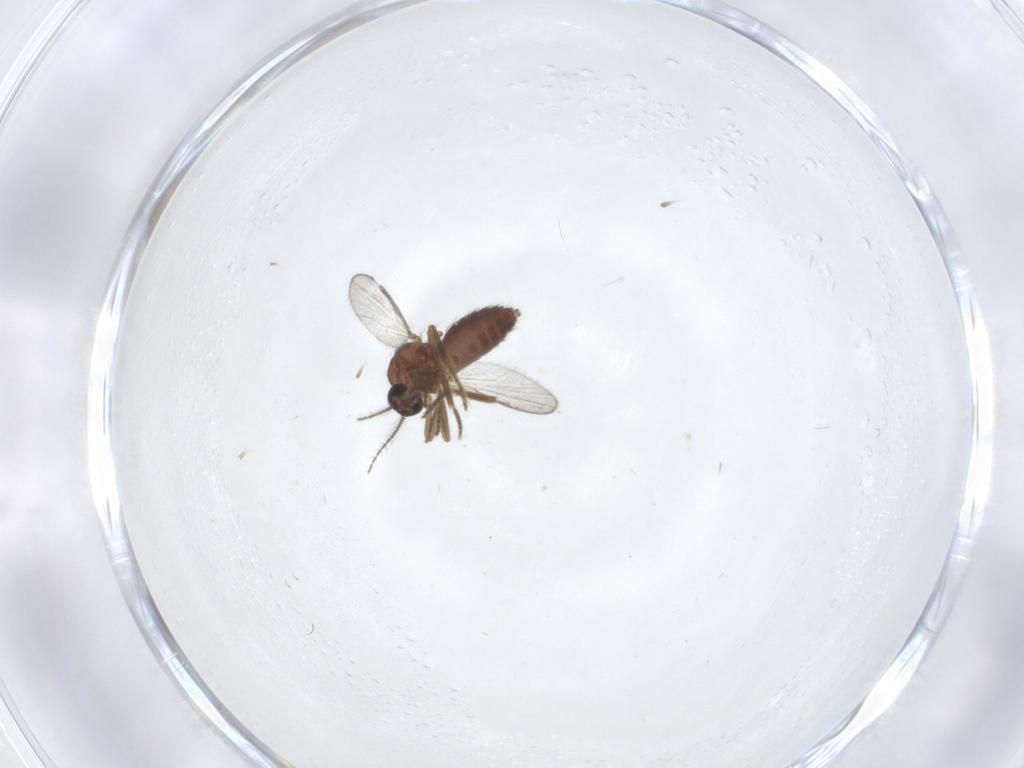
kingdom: Animalia
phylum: Arthropoda
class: Insecta
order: Diptera
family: Ceratopogonidae
